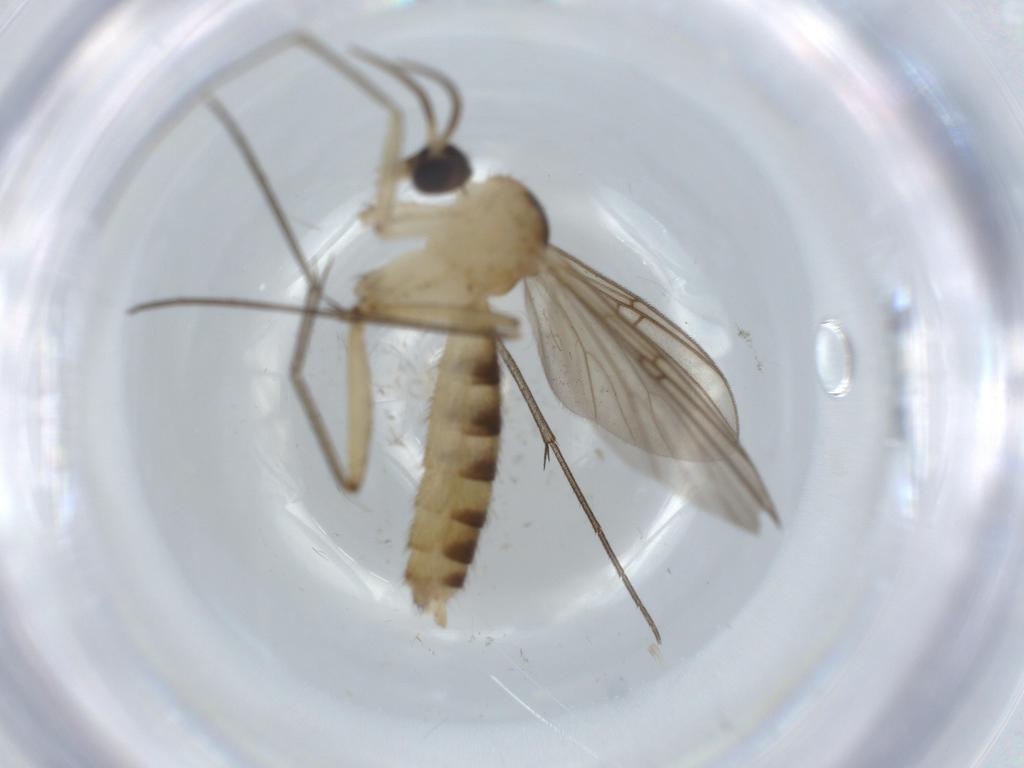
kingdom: Animalia
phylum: Arthropoda
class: Insecta
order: Diptera
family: Mycetophilidae
